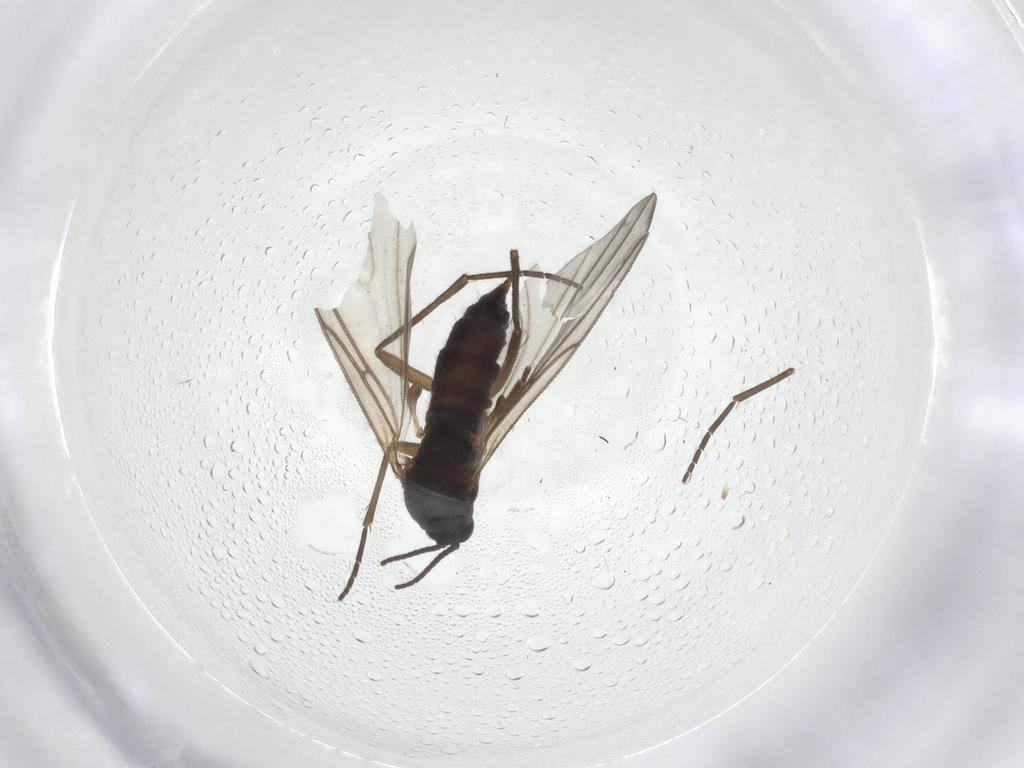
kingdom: Animalia
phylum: Arthropoda
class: Insecta
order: Diptera
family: Sciaridae
